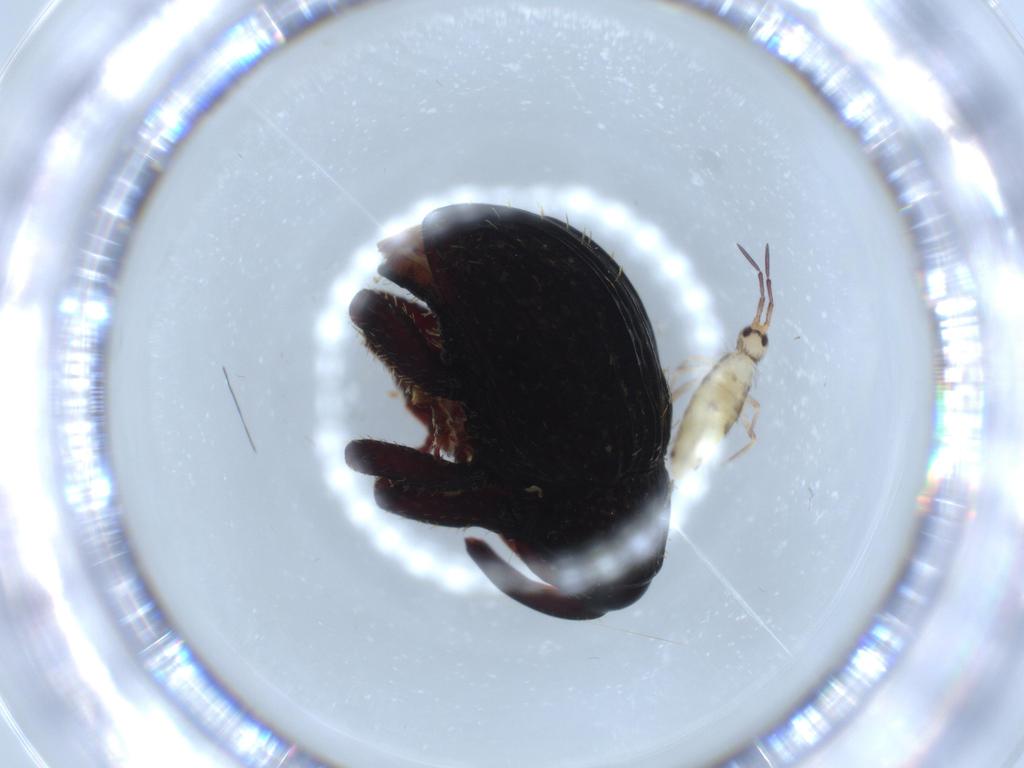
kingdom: Animalia
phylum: Arthropoda
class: Collembola
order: Entomobryomorpha
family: Entomobryidae
